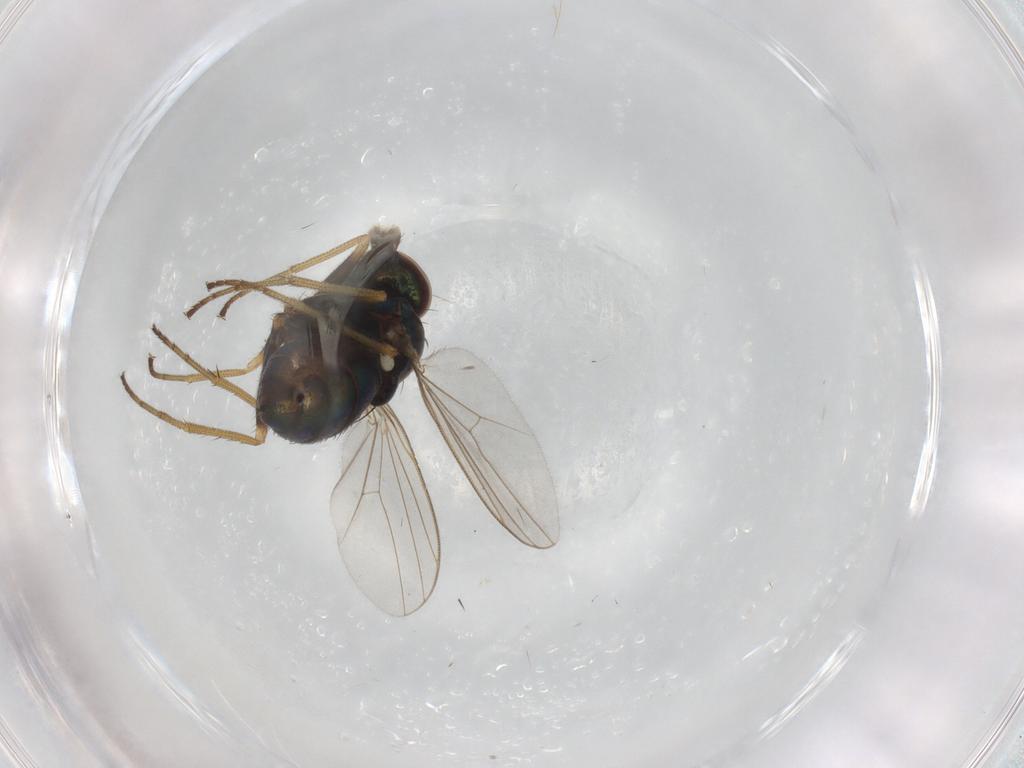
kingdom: Animalia
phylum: Arthropoda
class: Insecta
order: Diptera
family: Dolichopodidae
